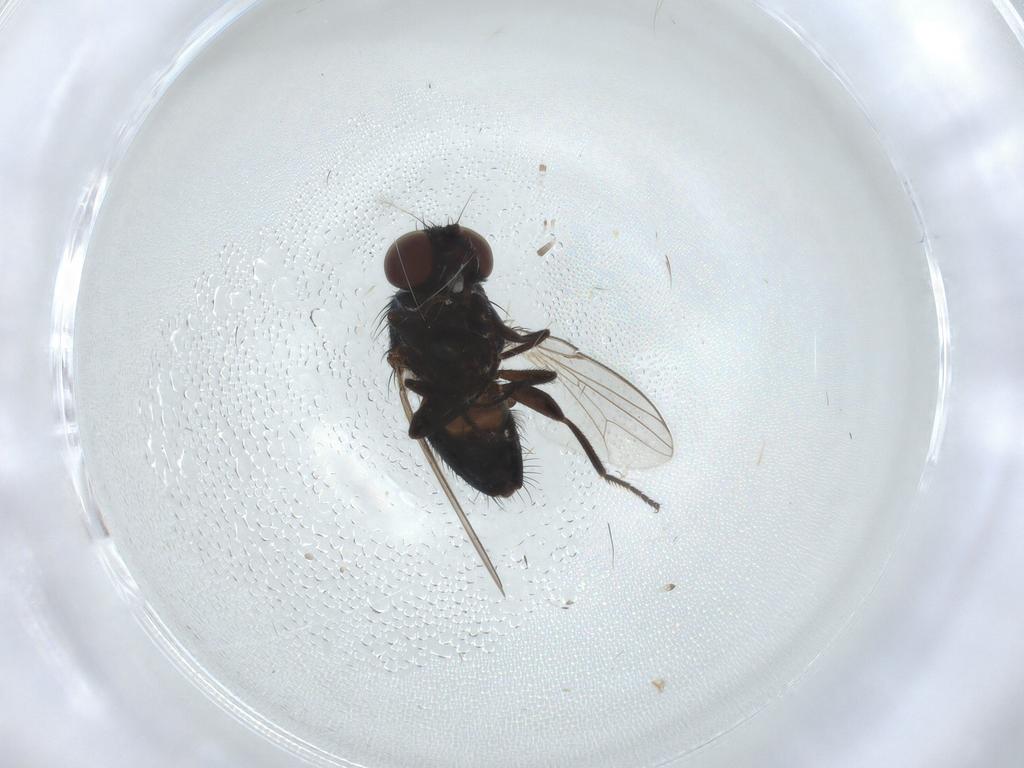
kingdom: Animalia
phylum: Arthropoda
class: Insecta
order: Diptera
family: Milichiidae
